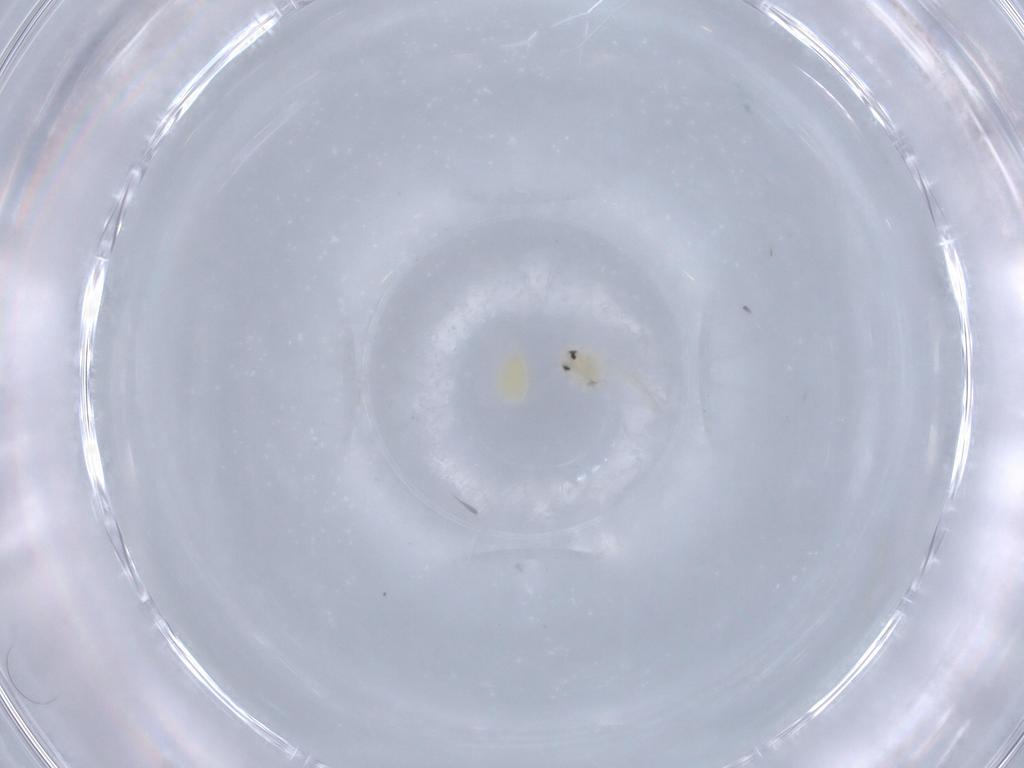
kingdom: Animalia
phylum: Arthropoda
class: Insecta
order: Hemiptera
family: Aleyrodidae
